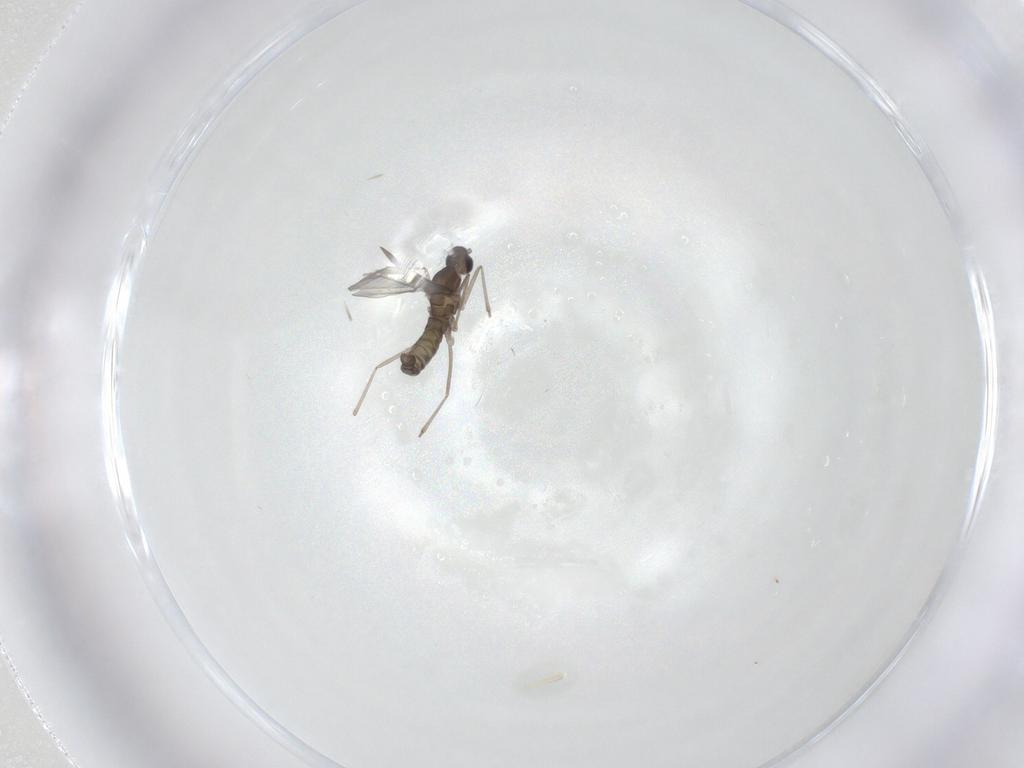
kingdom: Animalia
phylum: Arthropoda
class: Insecta
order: Diptera
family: Cecidomyiidae
